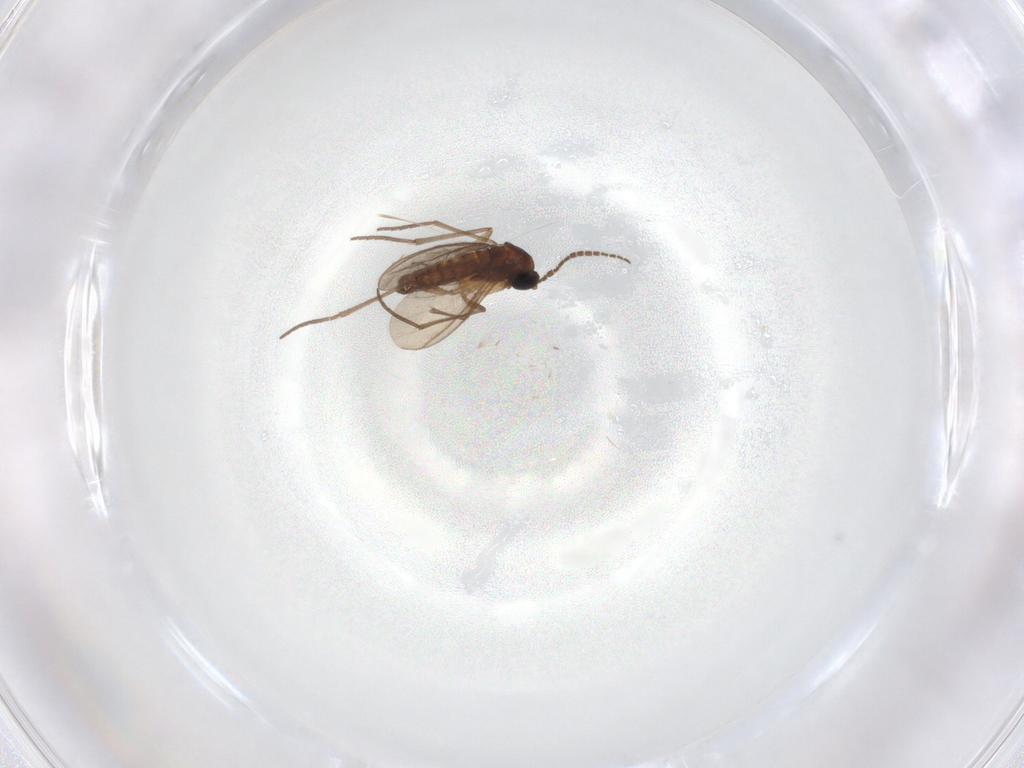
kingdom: Animalia
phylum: Arthropoda
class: Insecta
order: Diptera
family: Sciaridae
